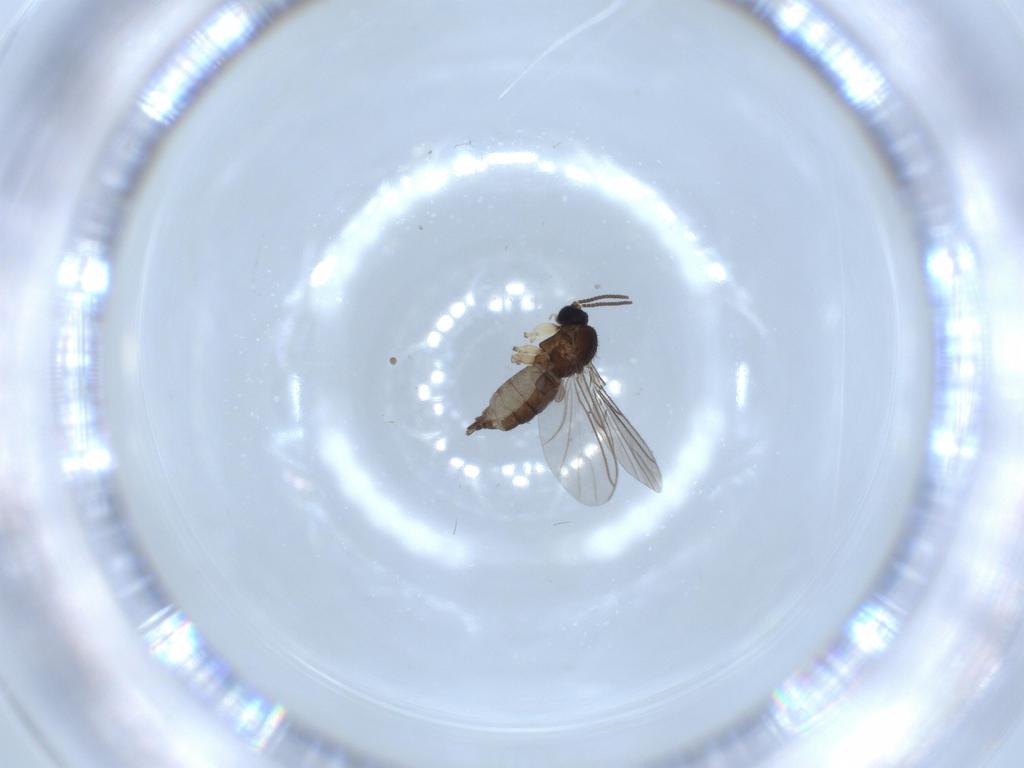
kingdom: Animalia
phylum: Arthropoda
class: Insecta
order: Diptera
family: Sciaridae
